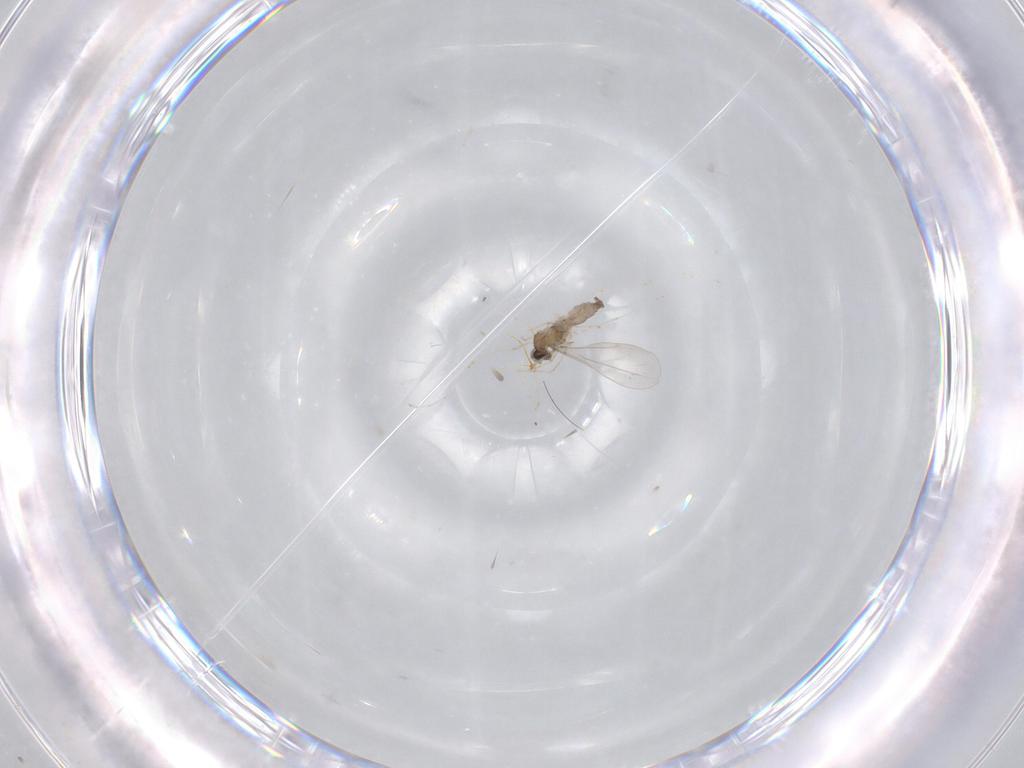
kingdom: Animalia
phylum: Arthropoda
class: Insecta
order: Diptera
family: Cecidomyiidae
